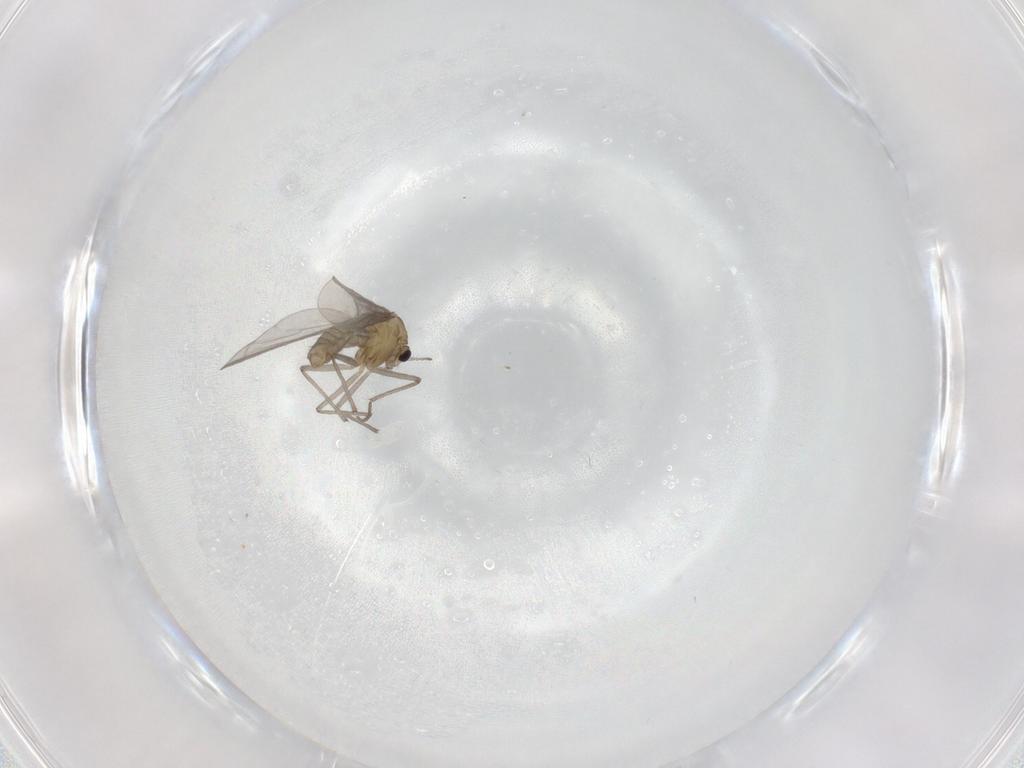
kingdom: Animalia
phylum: Arthropoda
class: Insecta
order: Diptera
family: Chironomidae
